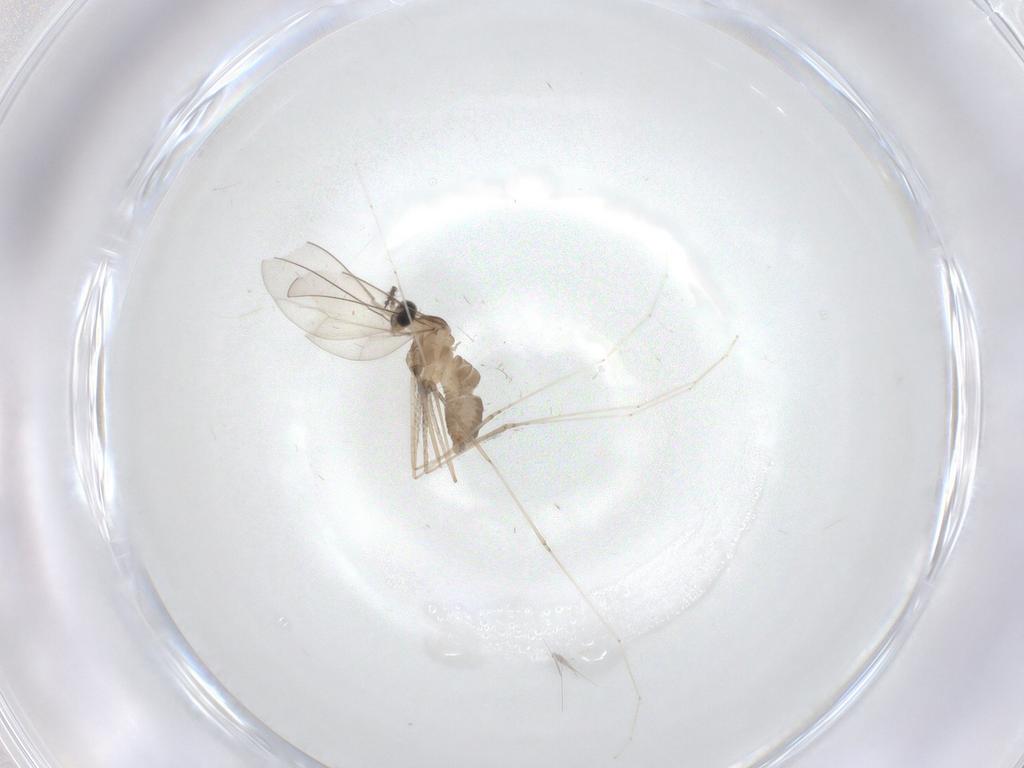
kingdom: Animalia
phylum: Arthropoda
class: Insecta
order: Diptera
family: Cecidomyiidae
